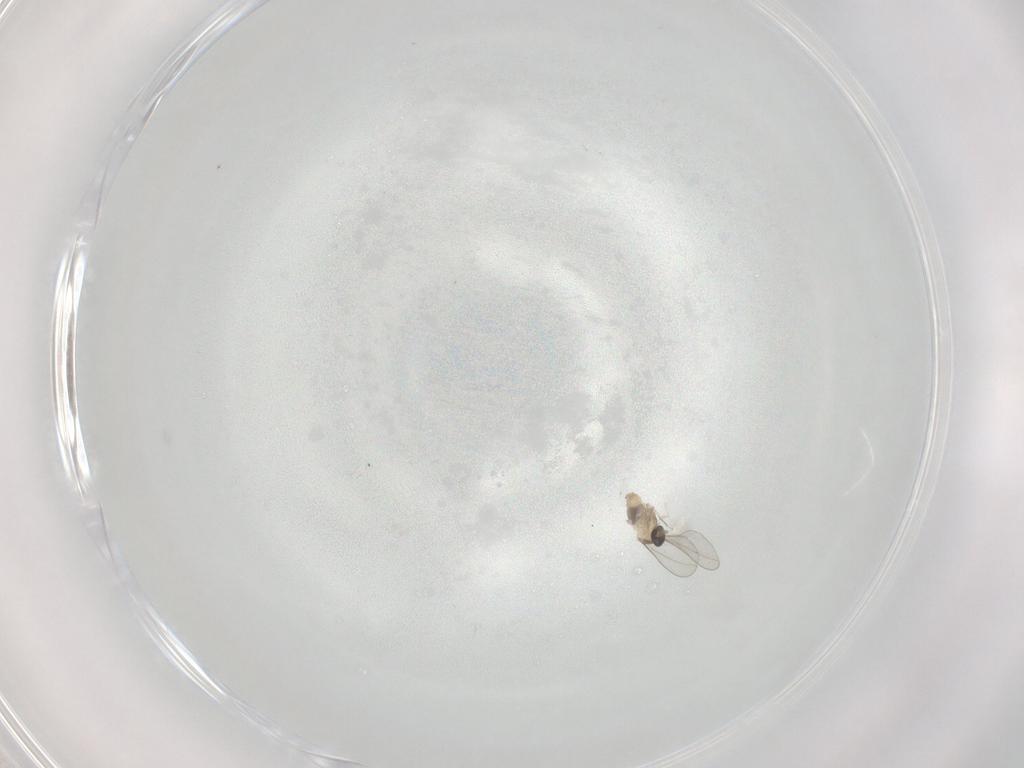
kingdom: Animalia
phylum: Arthropoda
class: Insecta
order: Diptera
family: Cecidomyiidae
